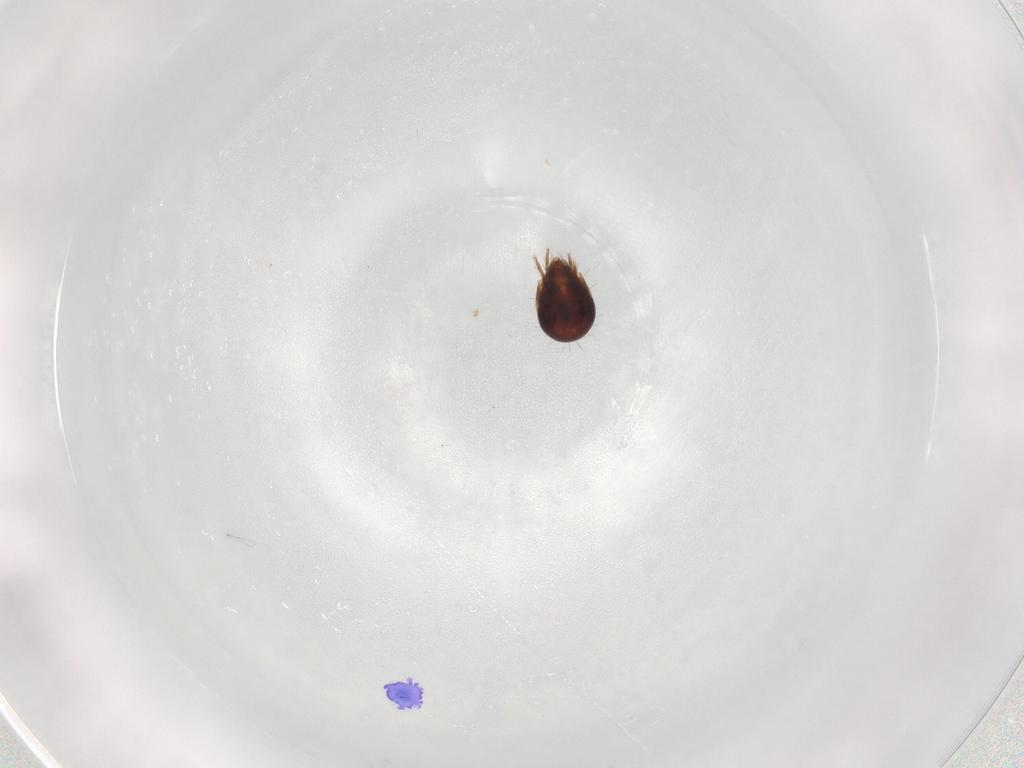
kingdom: Animalia
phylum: Arthropoda
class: Arachnida
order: Sarcoptiformes
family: Humerobatidae
